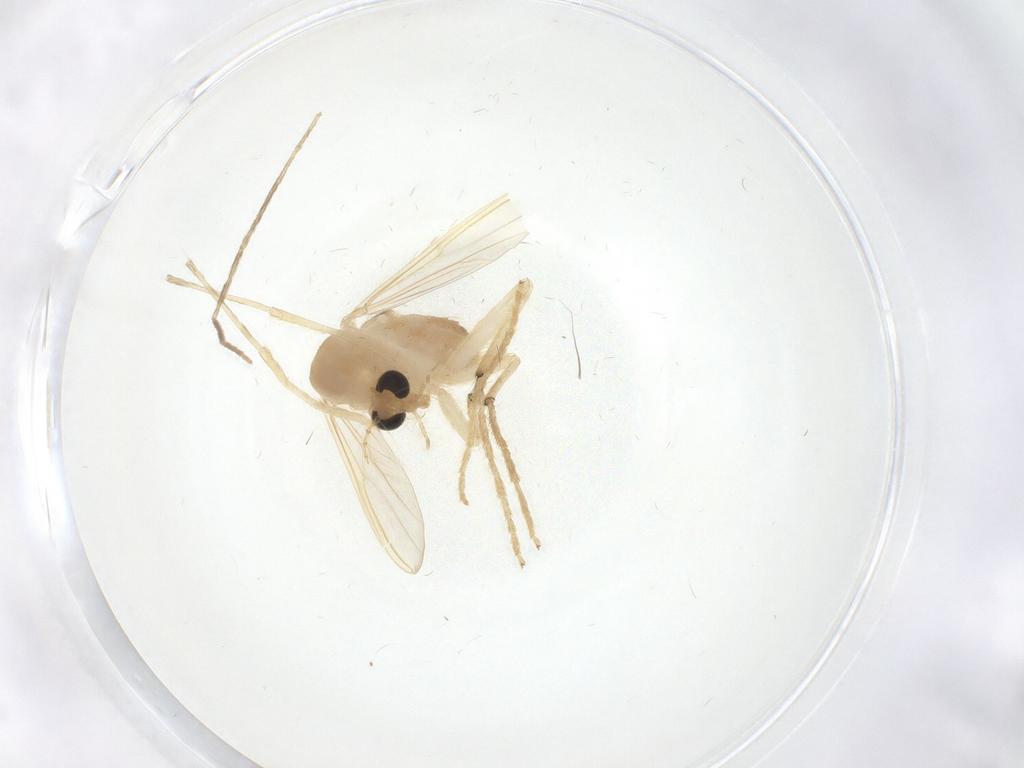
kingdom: Animalia
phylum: Arthropoda
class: Insecta
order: Diptera
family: Chironomidae
